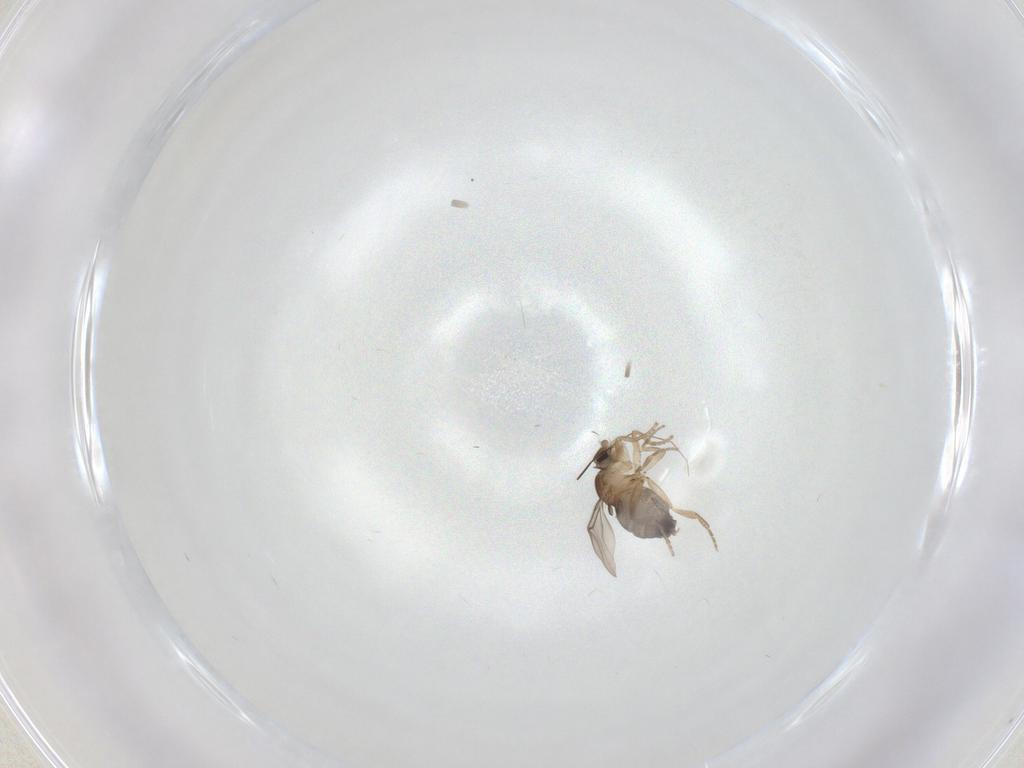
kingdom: Animalia
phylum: Arthropoda
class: Insecta
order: Diptera
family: Phoridae
